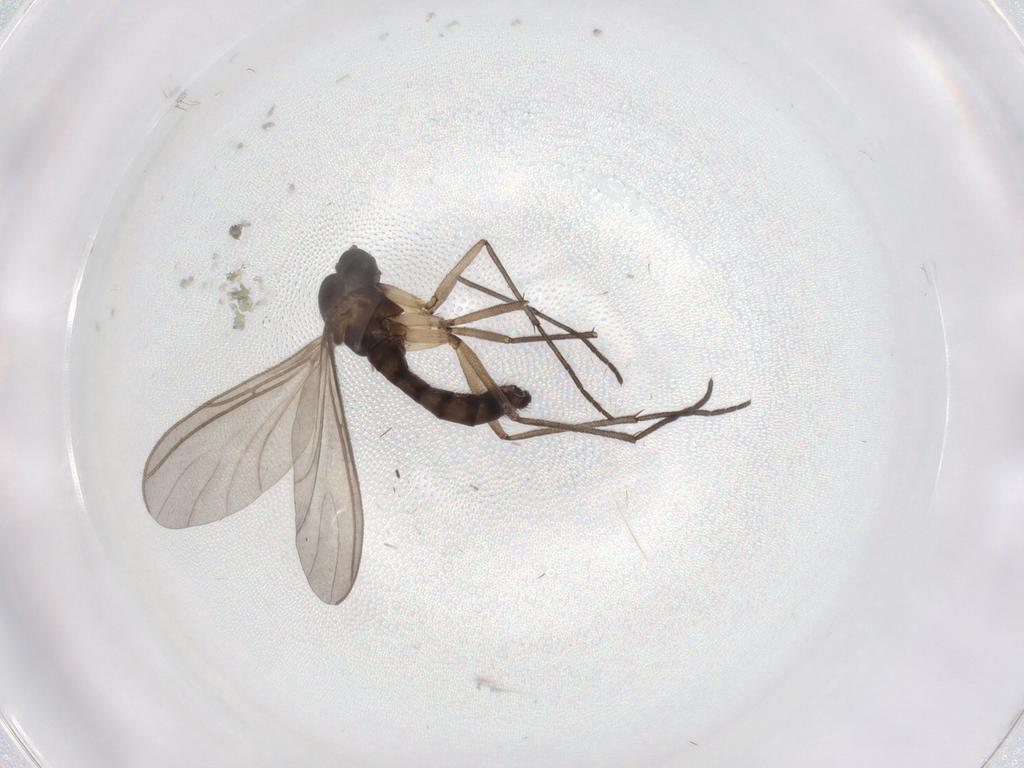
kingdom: Animalia
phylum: Arthropoda
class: Insecta
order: Diptera
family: Sciaridae
